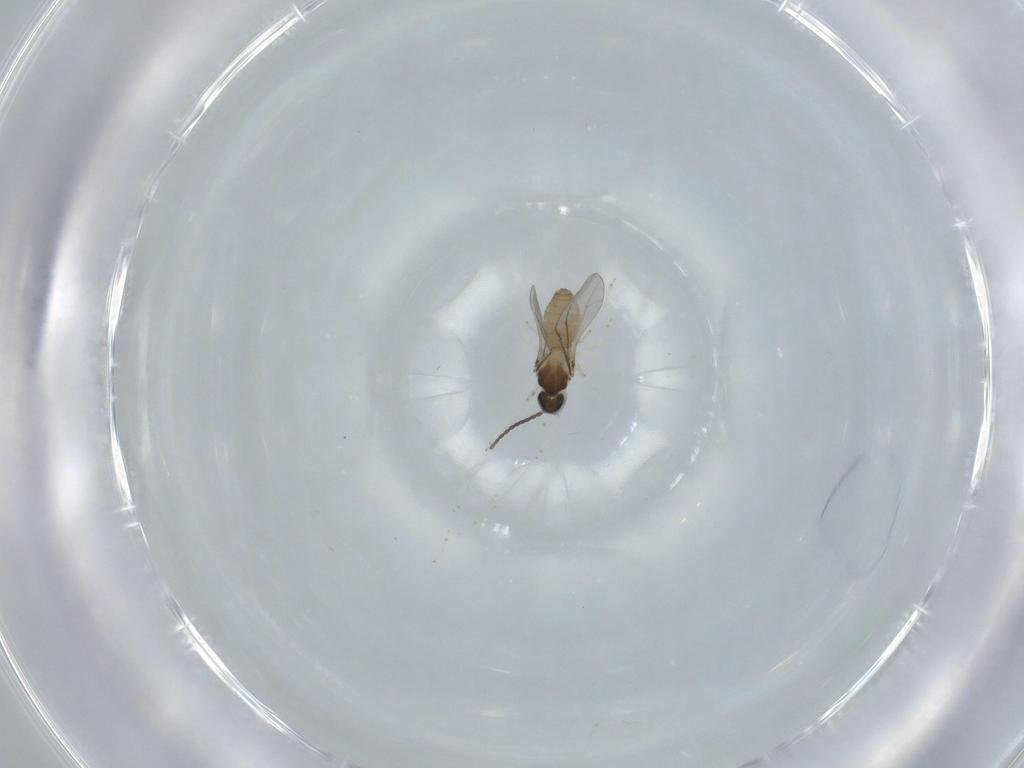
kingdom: Animalia
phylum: Arthropoda
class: Insecta
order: Diptera
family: Cecidomyiidae
